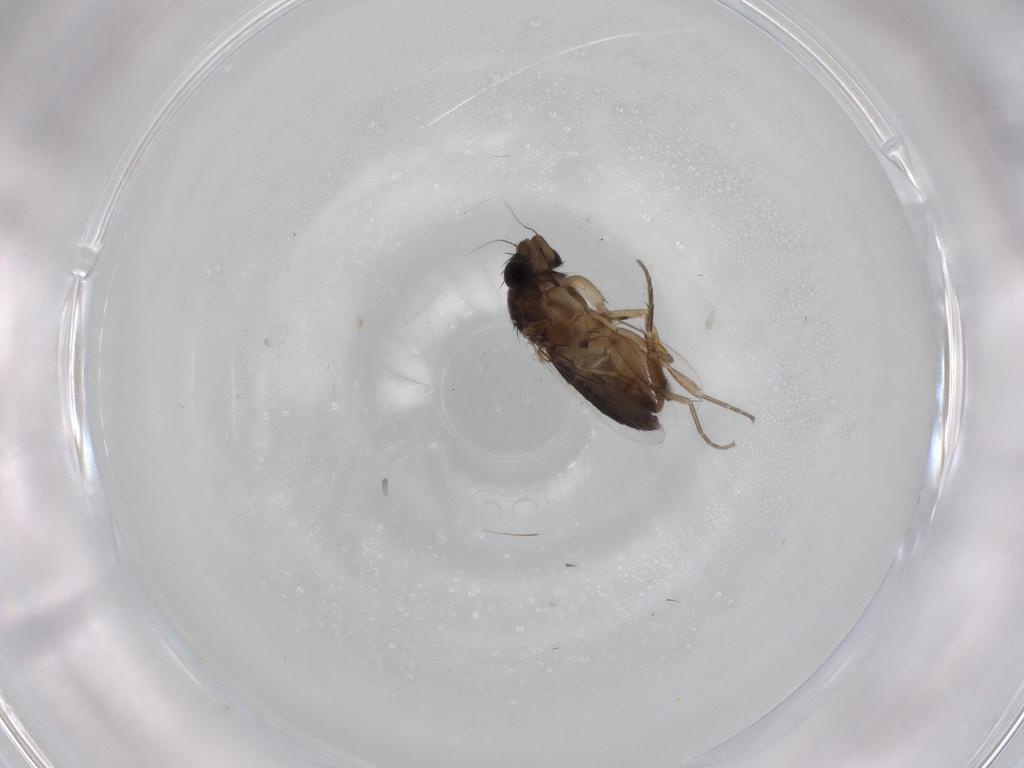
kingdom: Animalia
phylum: Arthropoda
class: Insecta
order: Diptera
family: Phoridae
